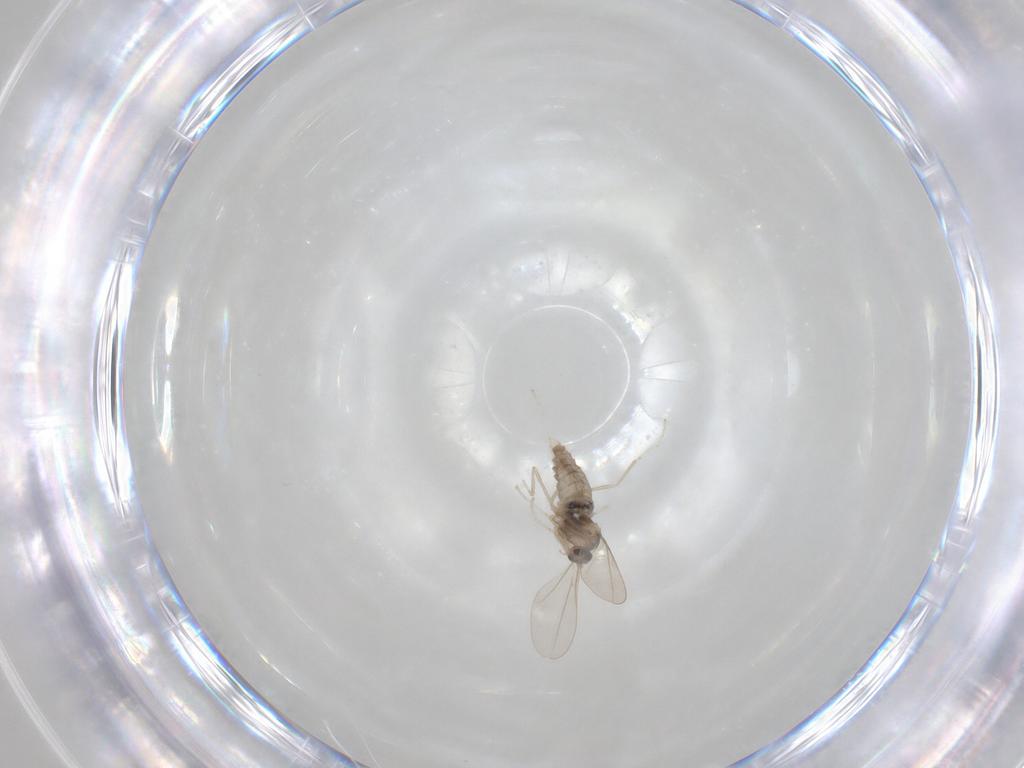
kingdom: Animalia
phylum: Arthropoda
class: Insecta
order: Diptera
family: Cecidomyiidae
